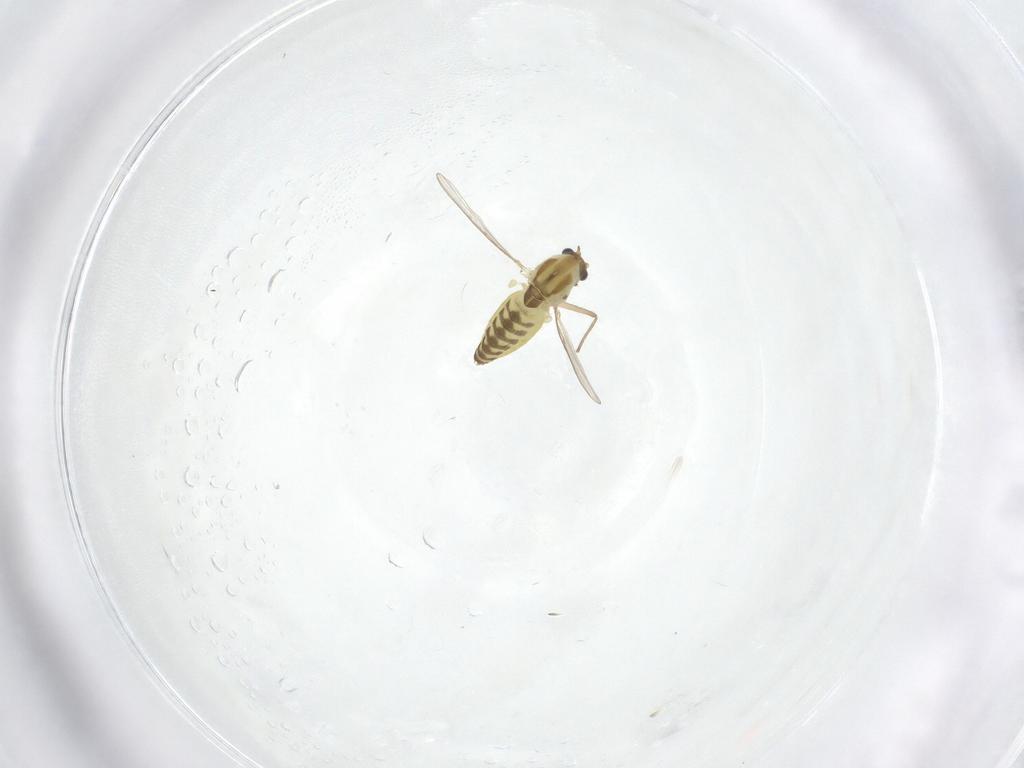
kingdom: Animalia
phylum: Arthropoda
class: Insecta
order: Diptera
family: Chironomidae
